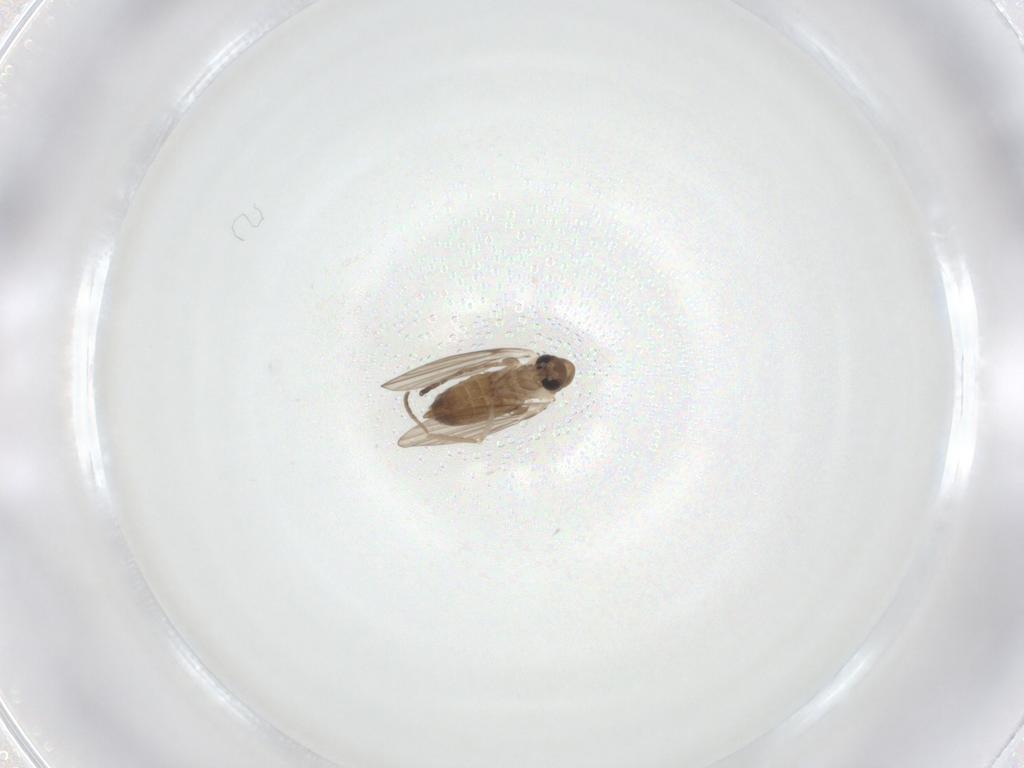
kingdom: Animalia
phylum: Arthropoda
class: Insecta
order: Diptera
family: Psychodidae
